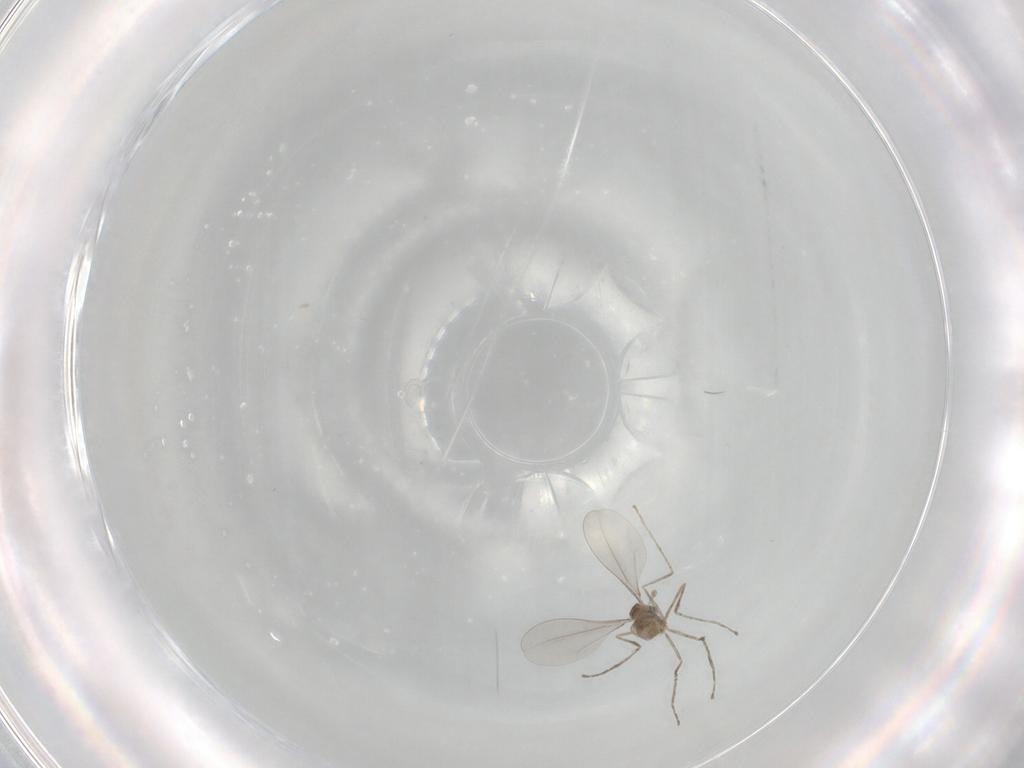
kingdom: Animalia
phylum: Arthropoda
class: Insecta
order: Diptera
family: Cecidomyiidae
